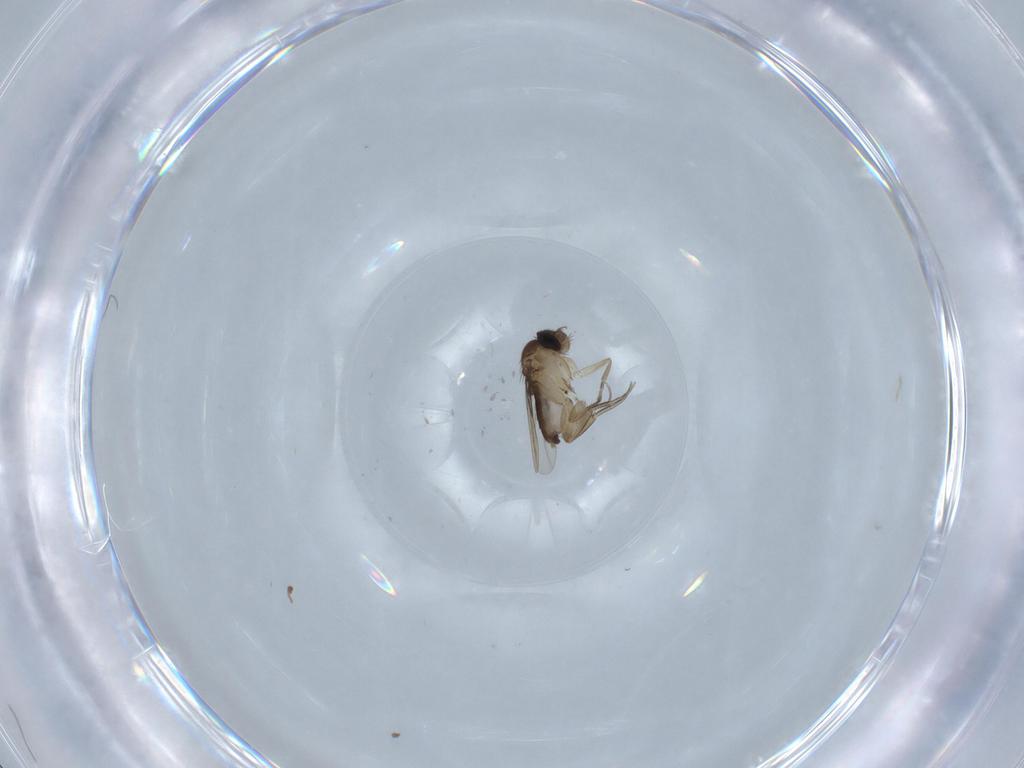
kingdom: Animalia
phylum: Arthropoda
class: Insecta
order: Diptera
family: Phoridae
